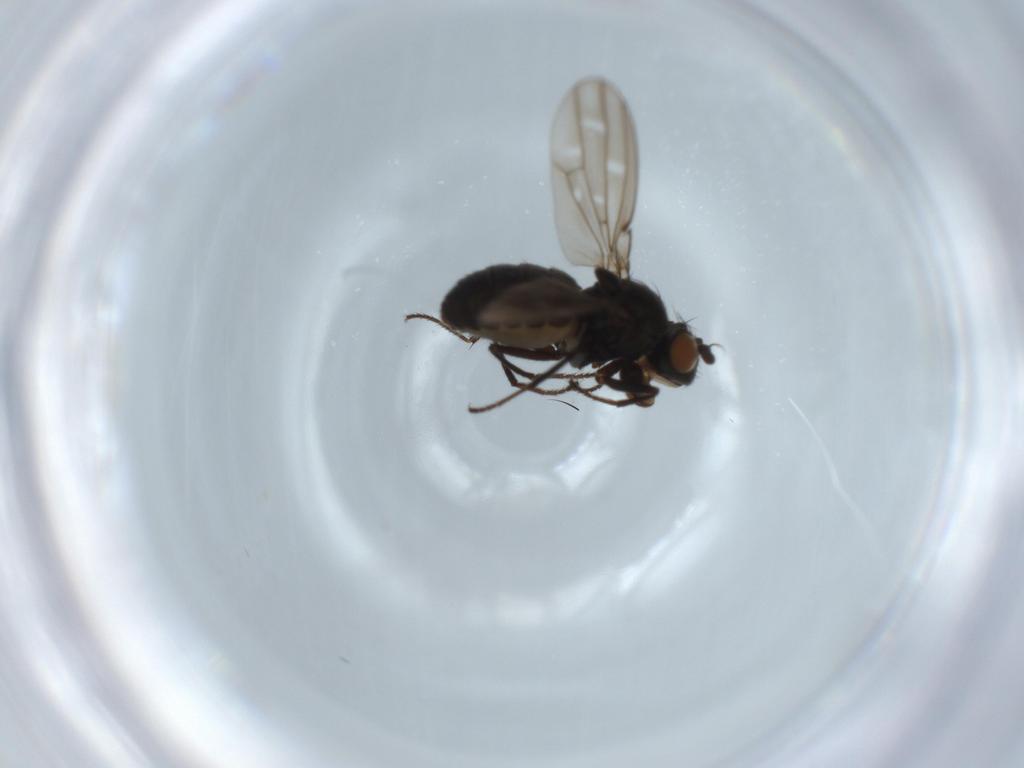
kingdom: Animalia
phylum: Arthropoda
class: Insecta
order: Diptera
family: Ephydridae
